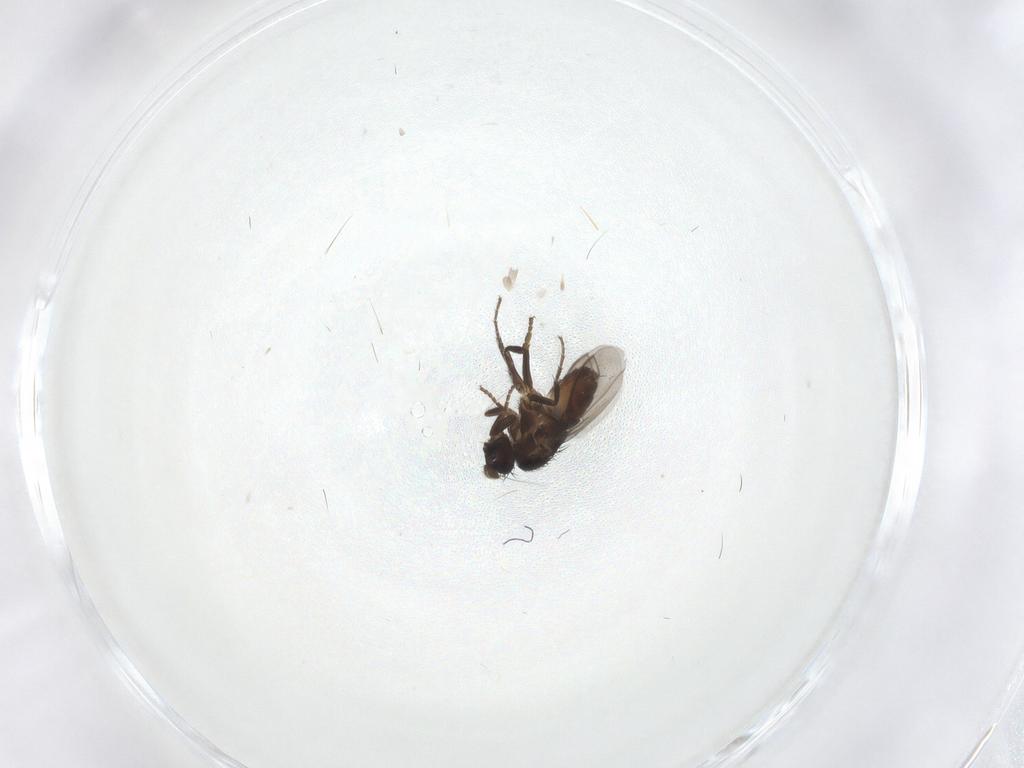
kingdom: Animalia
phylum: Arthropoda
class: Insecta
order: Diptera
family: Sphaeroceridae
